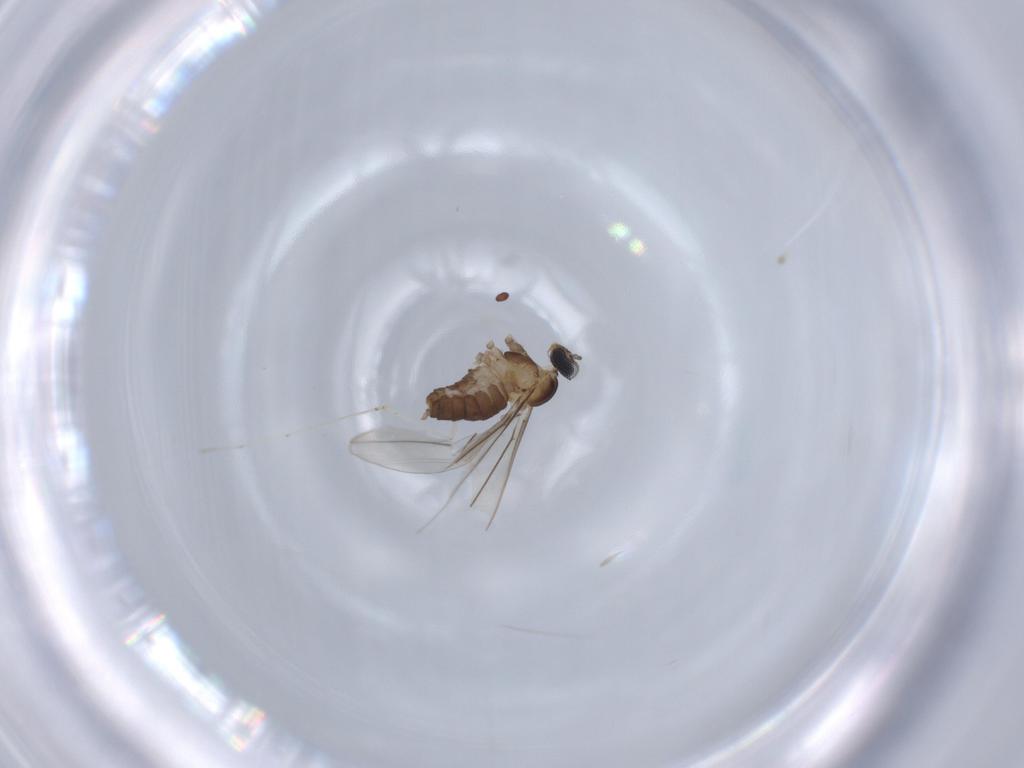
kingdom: Animalia
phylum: Arthropoda
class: Insecta
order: Diptera
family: Cecidomyiidae
